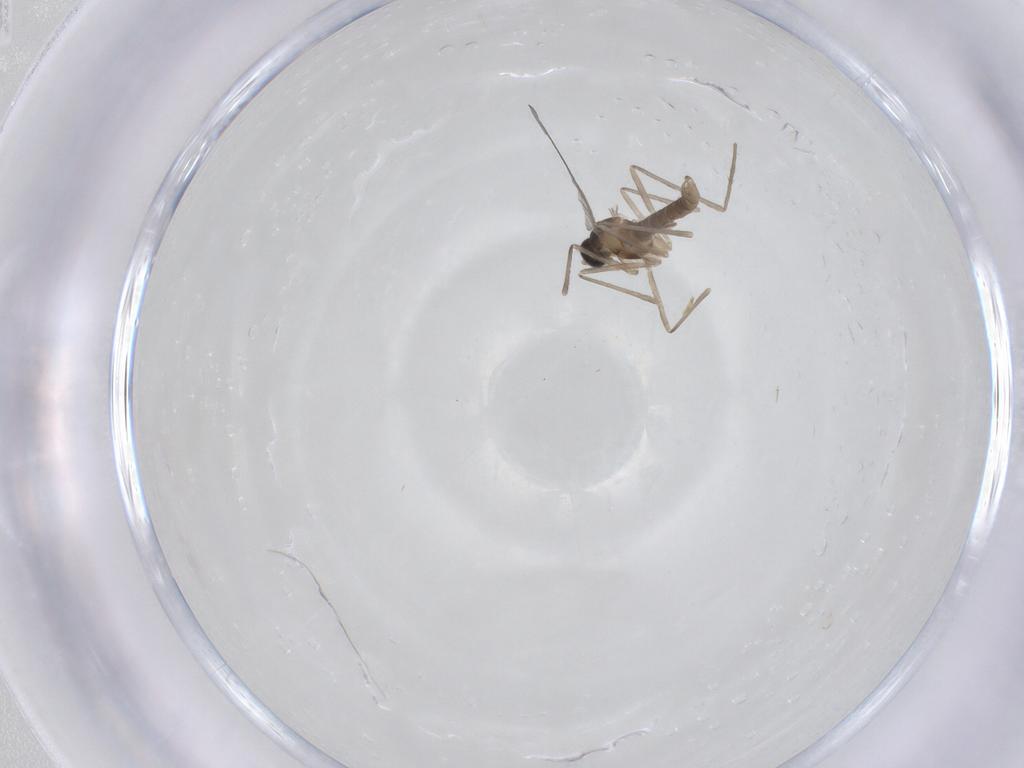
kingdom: Animalia
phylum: Arthropoda
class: Insecta
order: Diptera
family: Cecidomyiidae
